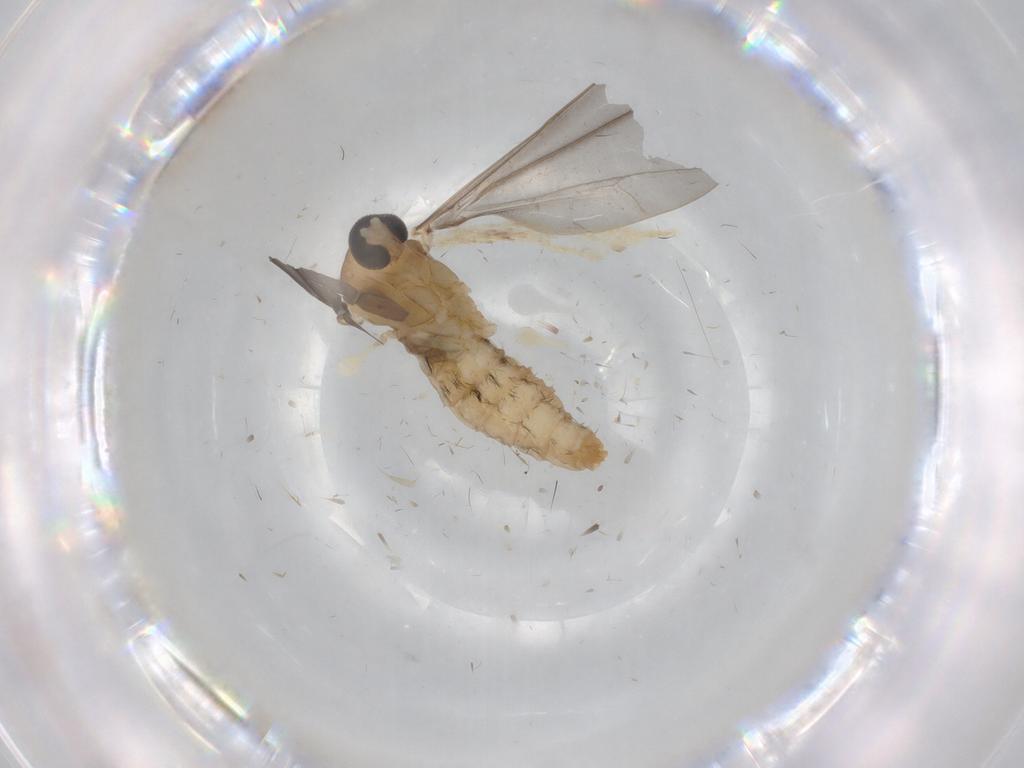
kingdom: Animalia
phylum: Arthropoda
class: Insecta
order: Diptera
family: Cecidomyiidae
